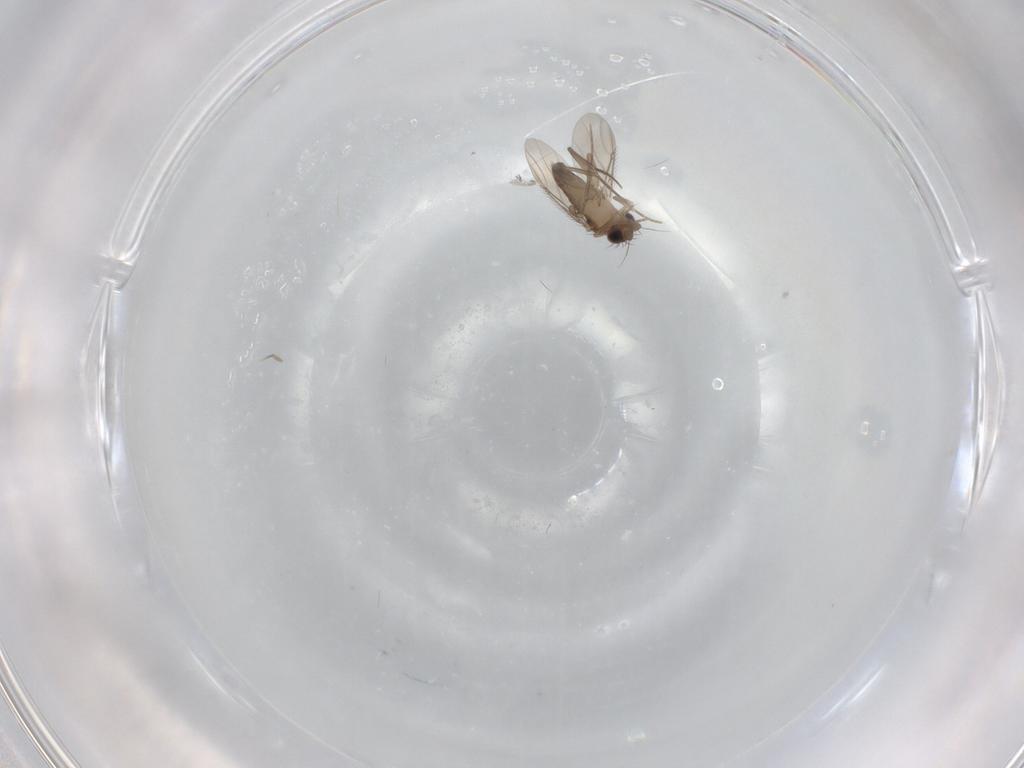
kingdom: Animalia
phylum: Arthropoda
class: Insecta
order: Diptera
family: Phoridae
